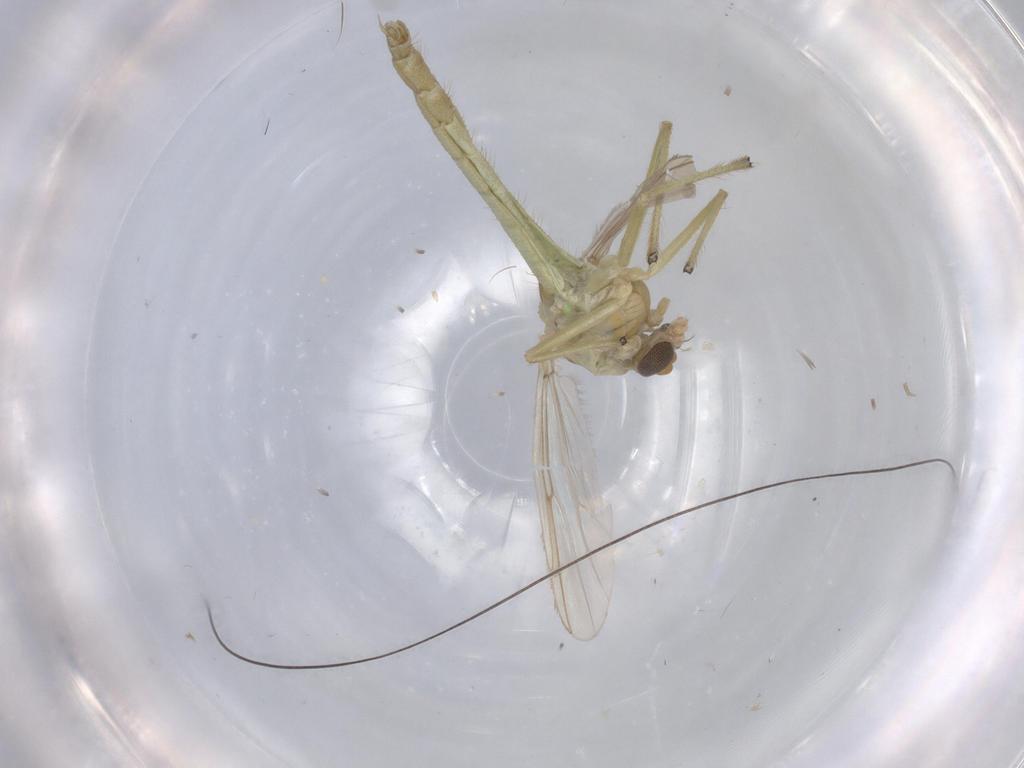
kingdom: Animalia
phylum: Arthropoda
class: Insecta
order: Diptera
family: Chironomidae
